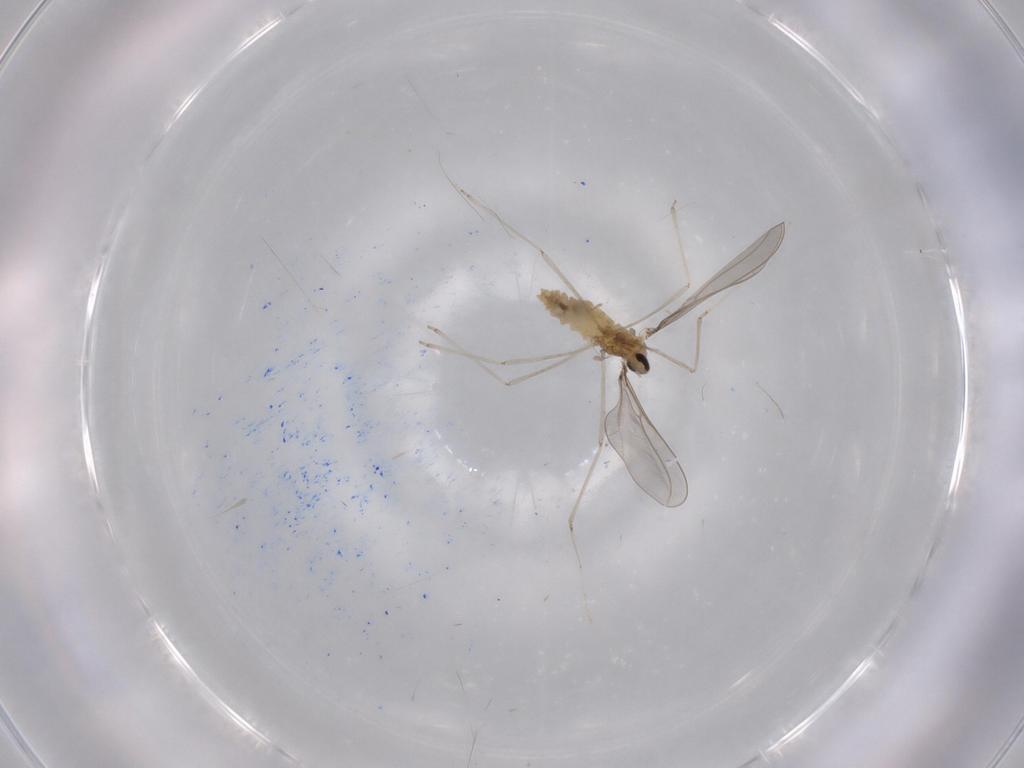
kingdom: Animalia
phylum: Arthropoda
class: Insecta
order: Diptera
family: Cecidomyiidae
